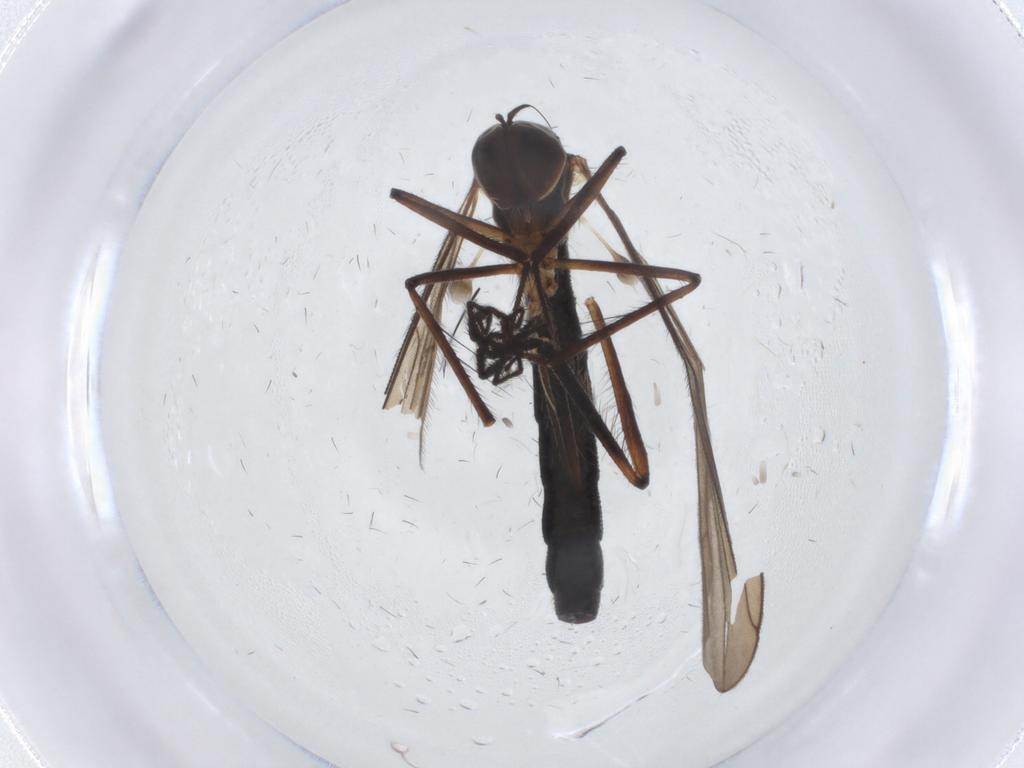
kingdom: Animalia
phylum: Arthropoda
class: Insecta
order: Diptera
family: Hybotidae
